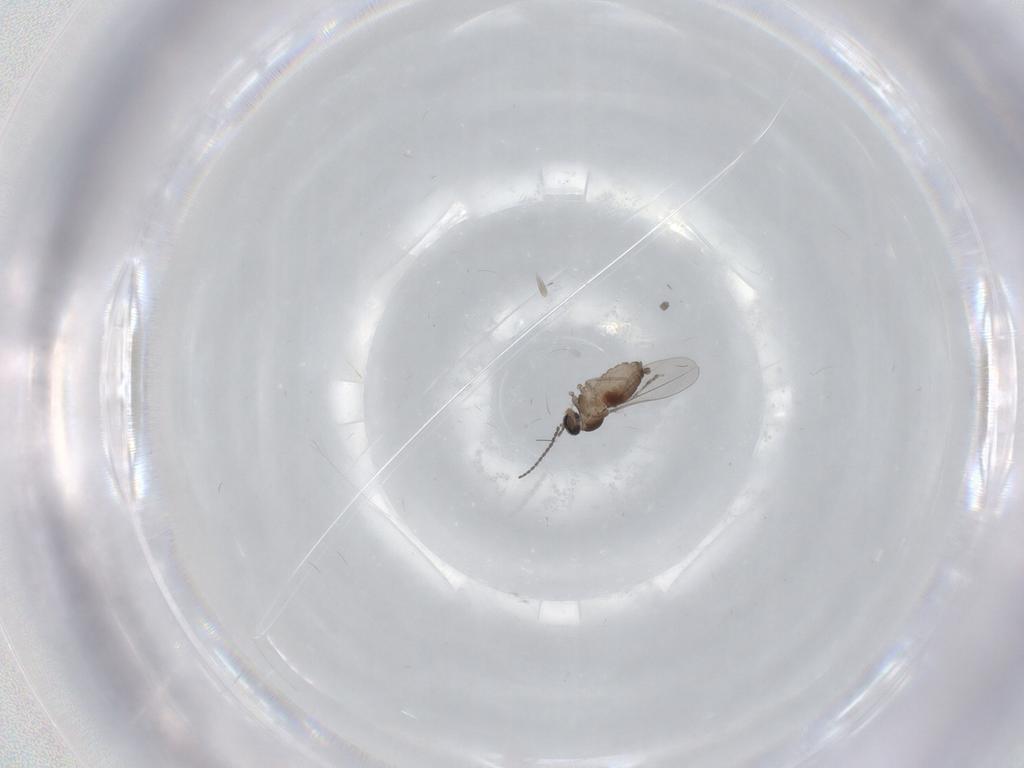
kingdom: Animalia
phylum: Arthropoda
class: Insecta
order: Diptera
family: Cecidomyiidae
